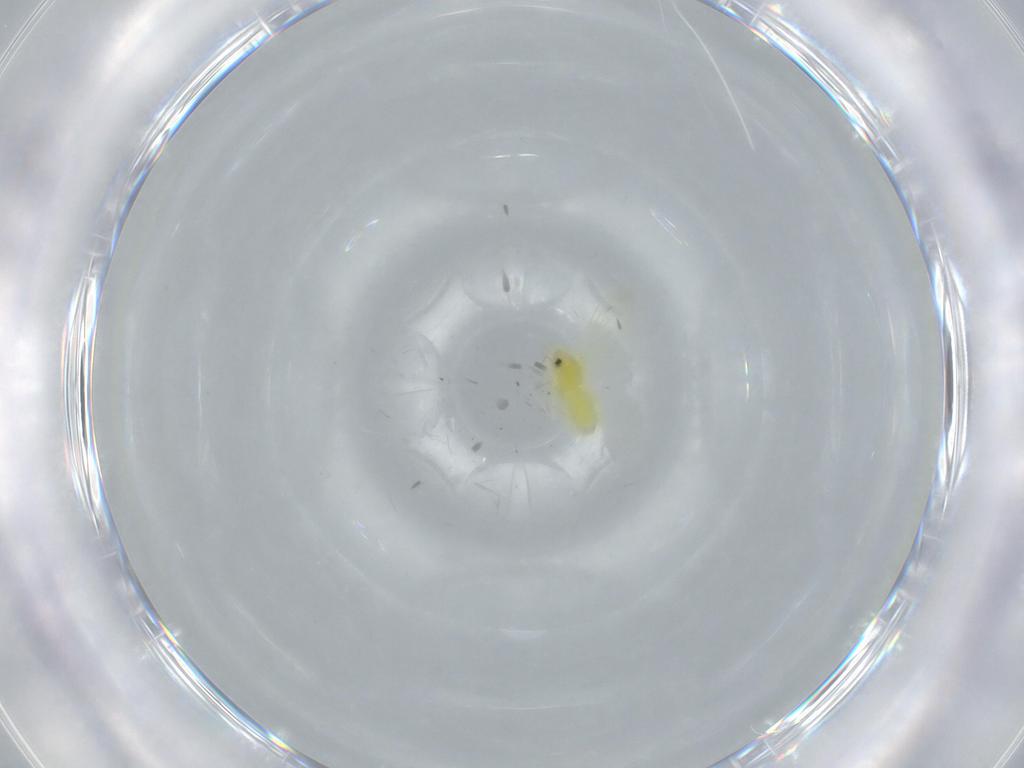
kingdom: Animalia
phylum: Arthropoda
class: Insecta
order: Hemiptera
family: Aleyrodidae
